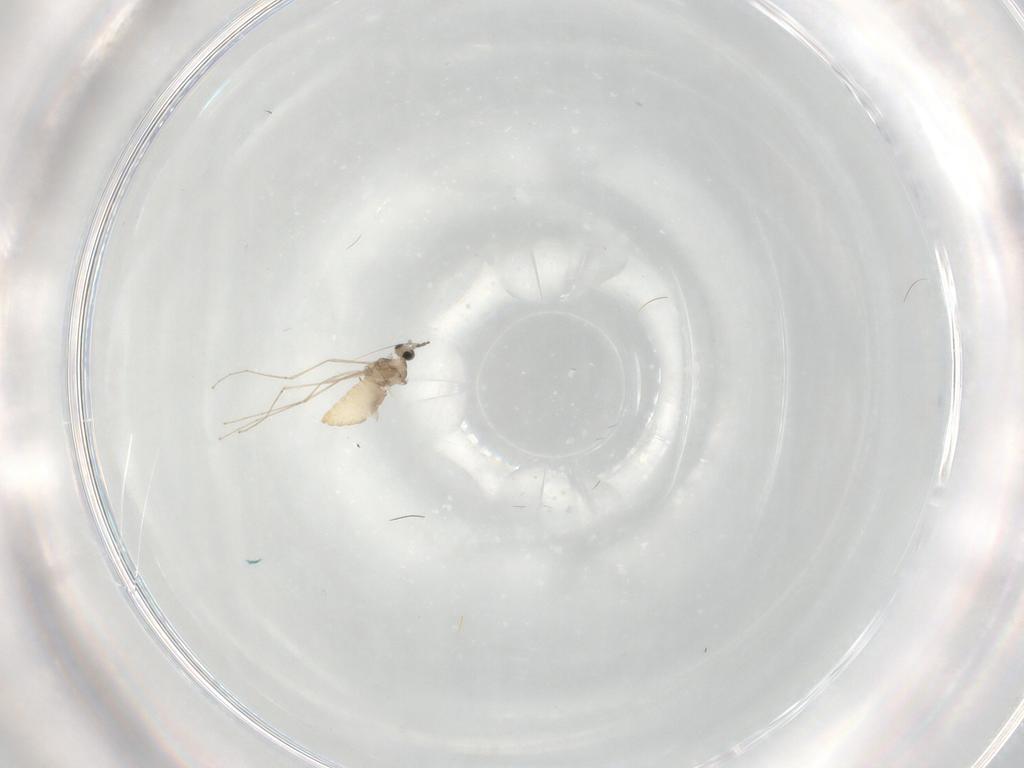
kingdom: Animalia
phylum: Arthropoda
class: Insecta
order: Diptera
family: Cecidomyiidae
